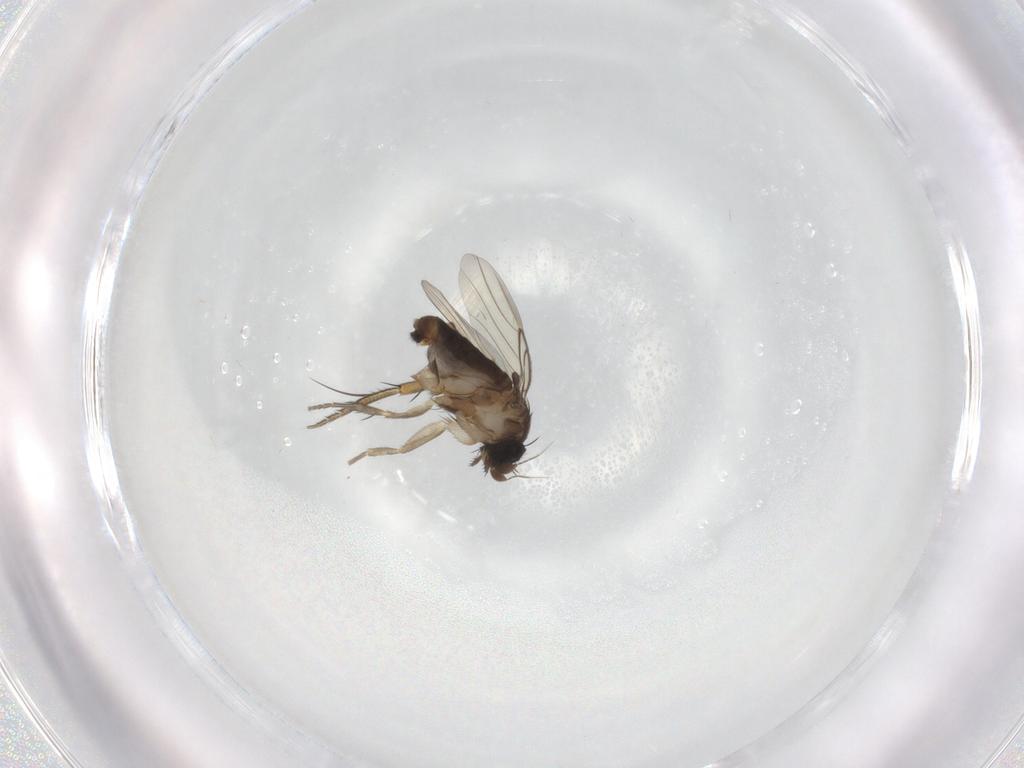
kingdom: Animalia
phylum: Arthropoda
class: Insecta
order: Diptera
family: Phoridae
